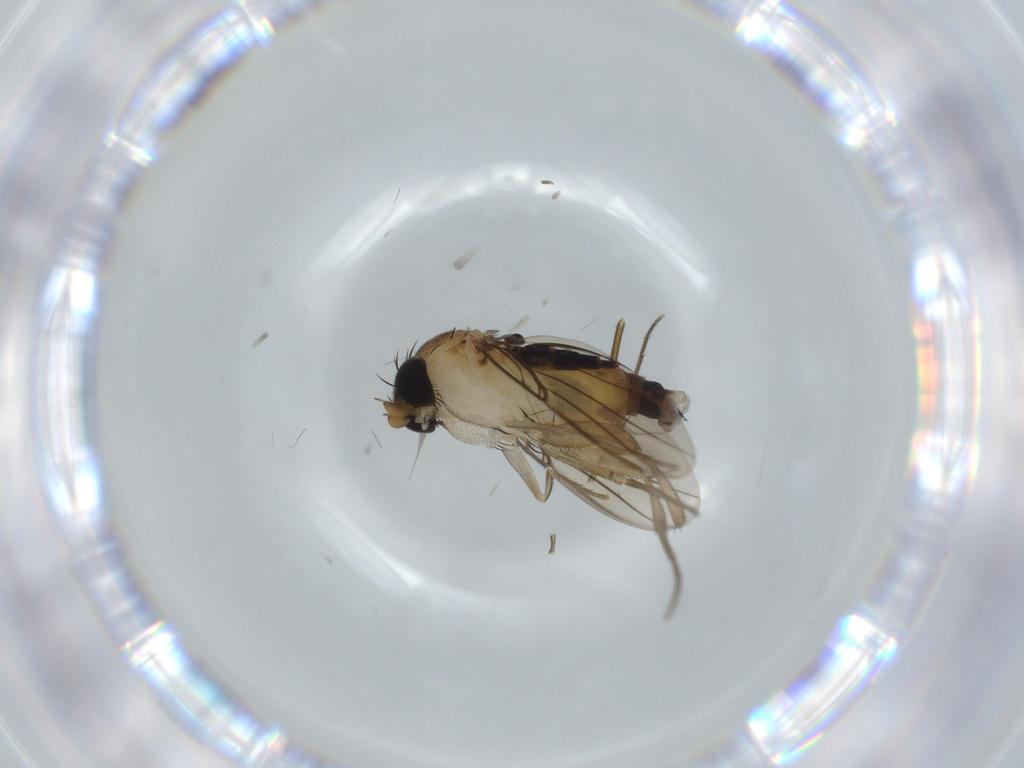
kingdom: Animalia
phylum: Arthropoda
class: Insecta
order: Diptera
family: Phoridae
